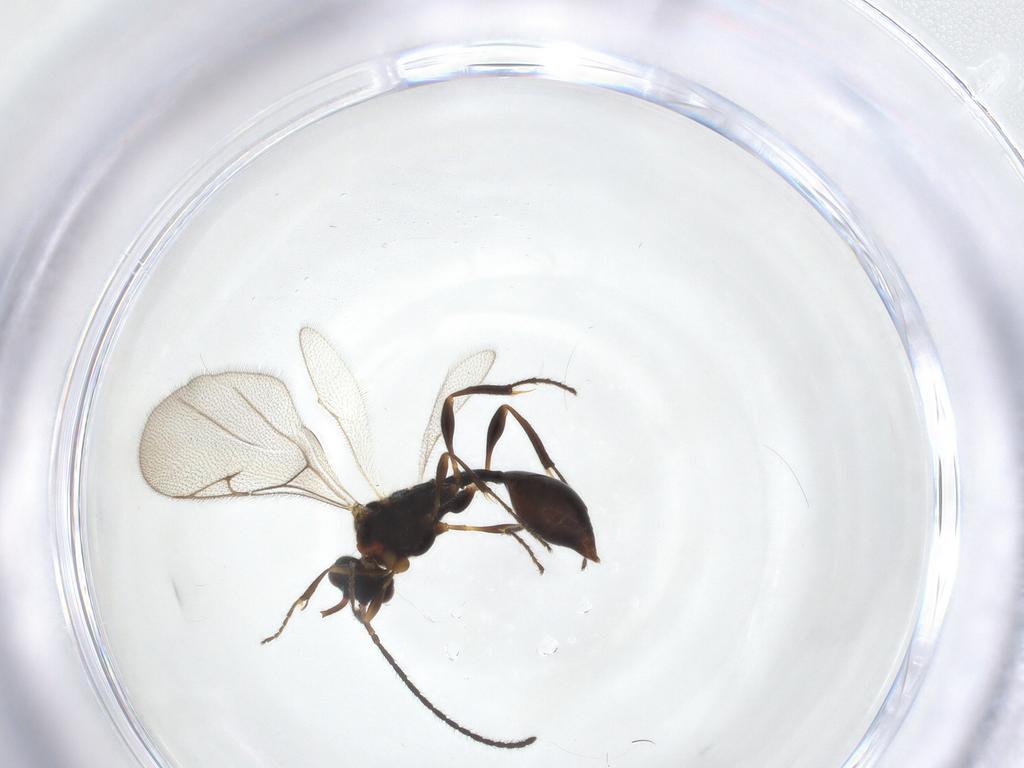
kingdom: Animalia
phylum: Arthropoda
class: Insecta
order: Hymenoptera
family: Diapriidae
